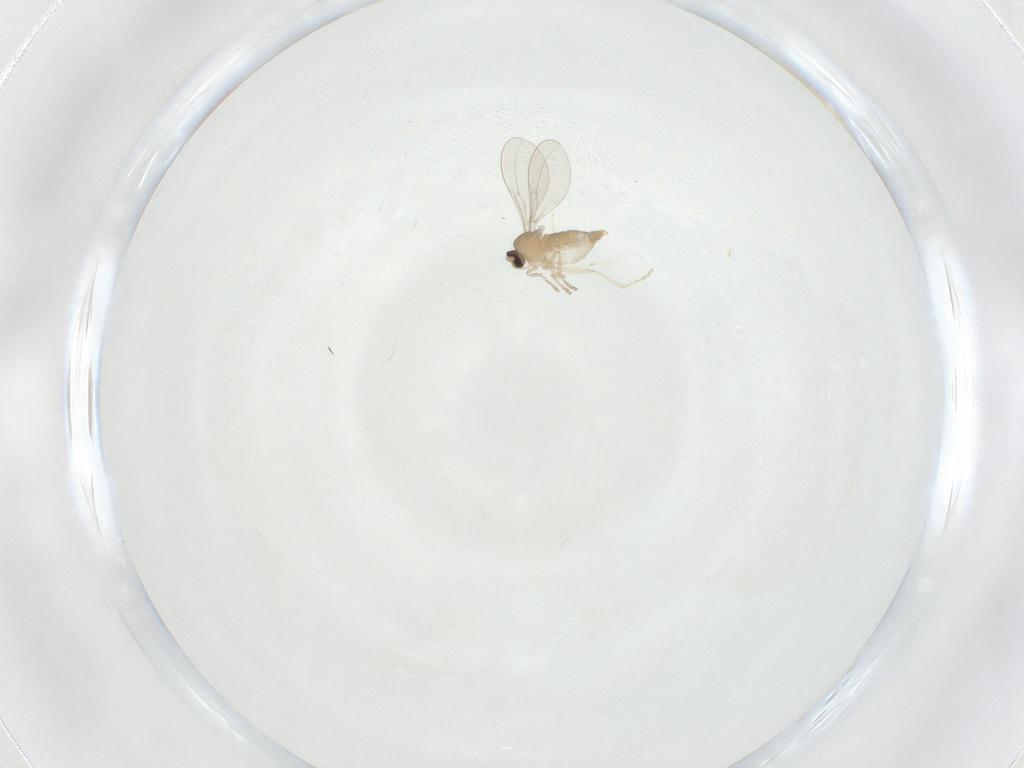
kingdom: Animalia
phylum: Arthropoda
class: Insecta
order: Diptera
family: Cecidomyiidae
